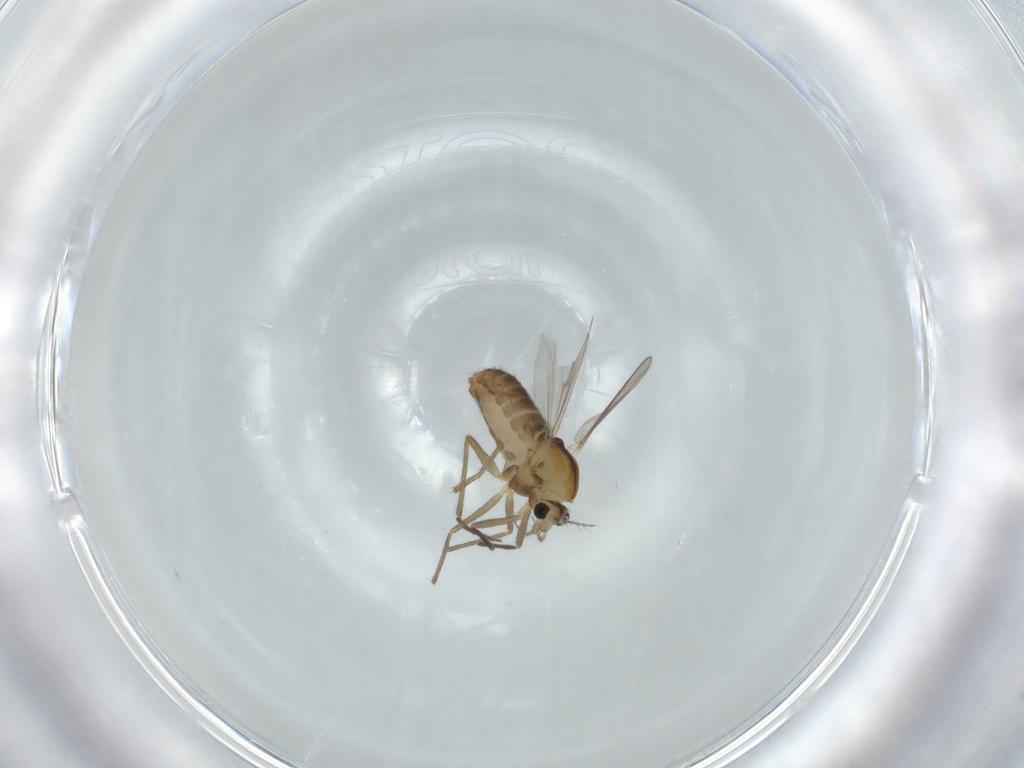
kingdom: Animalia
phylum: Arthropoda
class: Insecta
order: Diptera
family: Chironomidae
